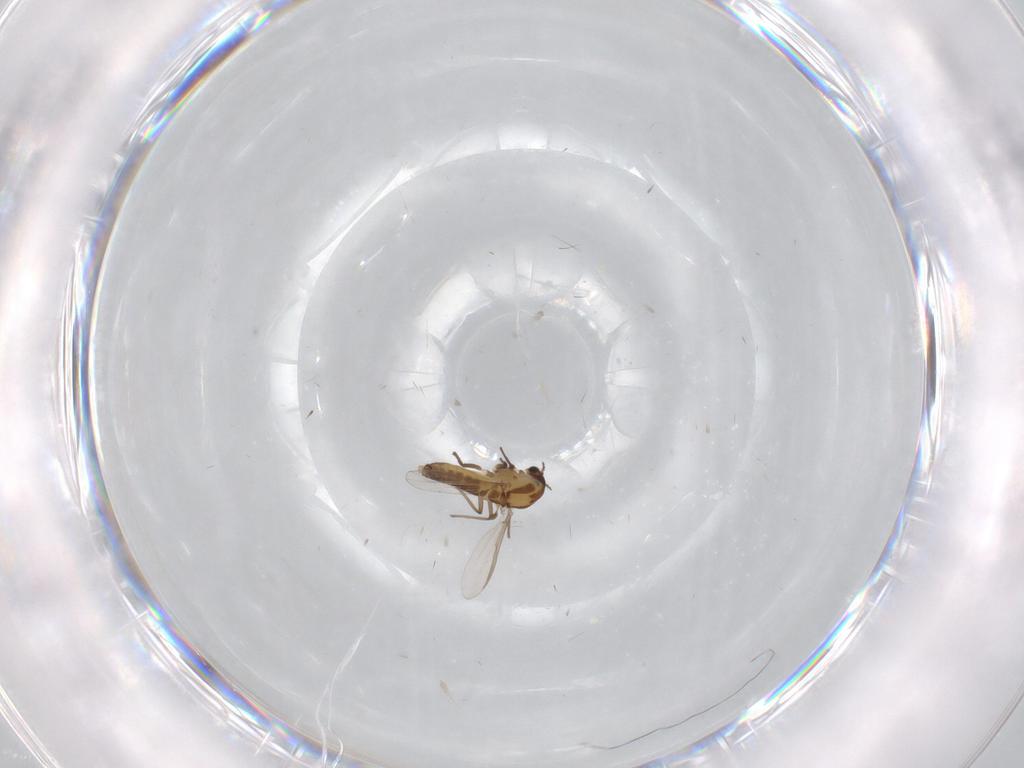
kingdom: Animalia
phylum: Arthropoda
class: Insecta
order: Diptera
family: Chironomidae
